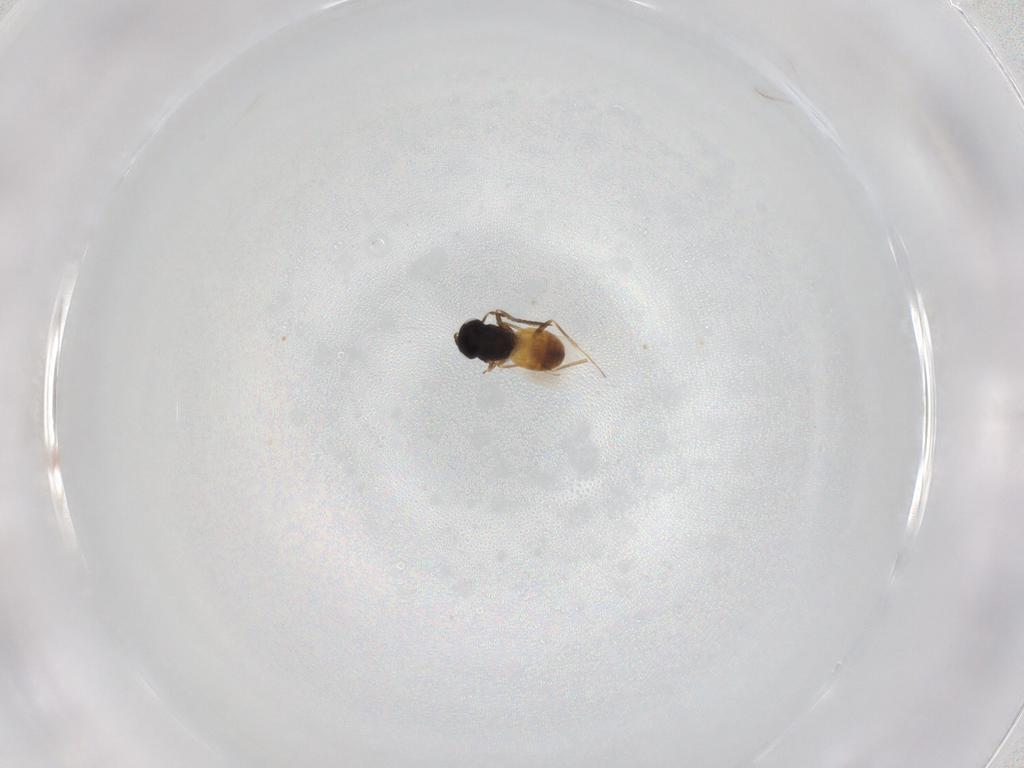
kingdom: Animalia
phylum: Arthropoda
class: Insecta
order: Hymenoptera
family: Scelionidae
